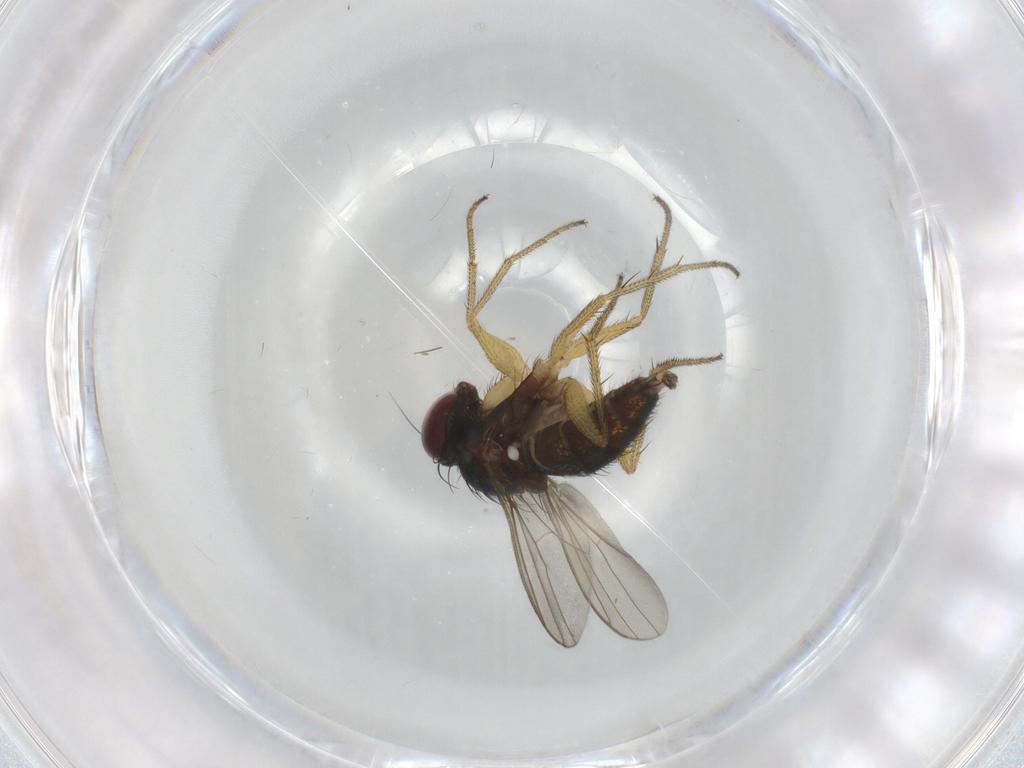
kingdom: Animalia
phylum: Arthropoda
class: Insecta
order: Diptera
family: Dolichopodidae
